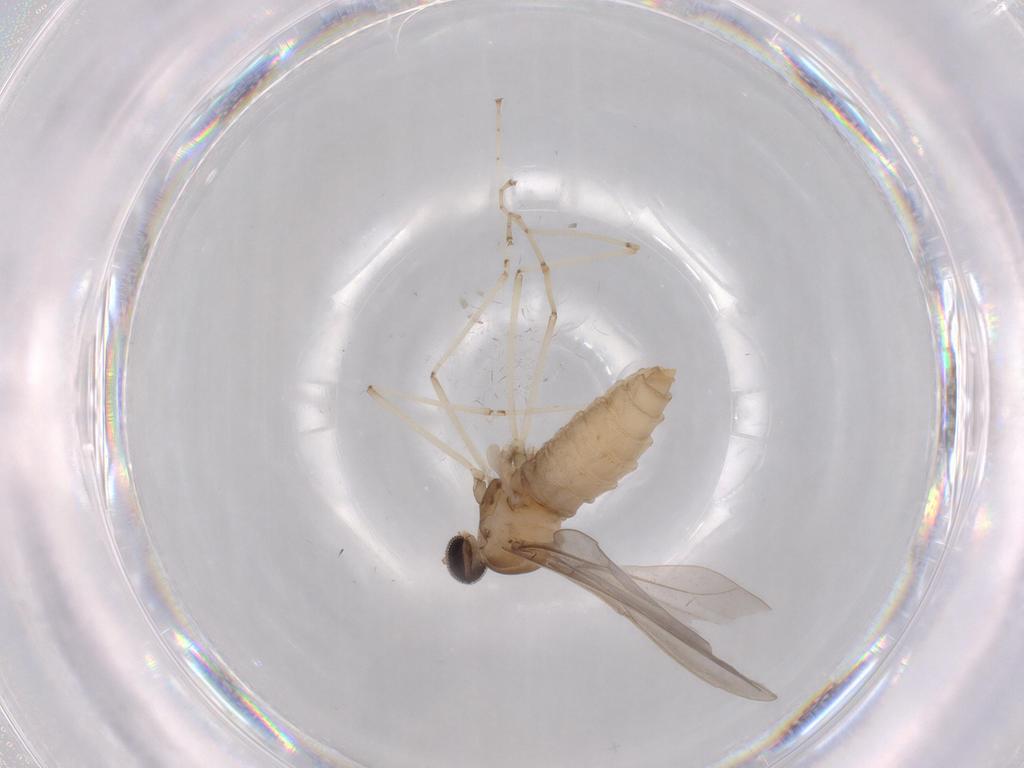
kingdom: Animalia
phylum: Arthropoda
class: Insecta
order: Diptera
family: Cecidomyiidae
